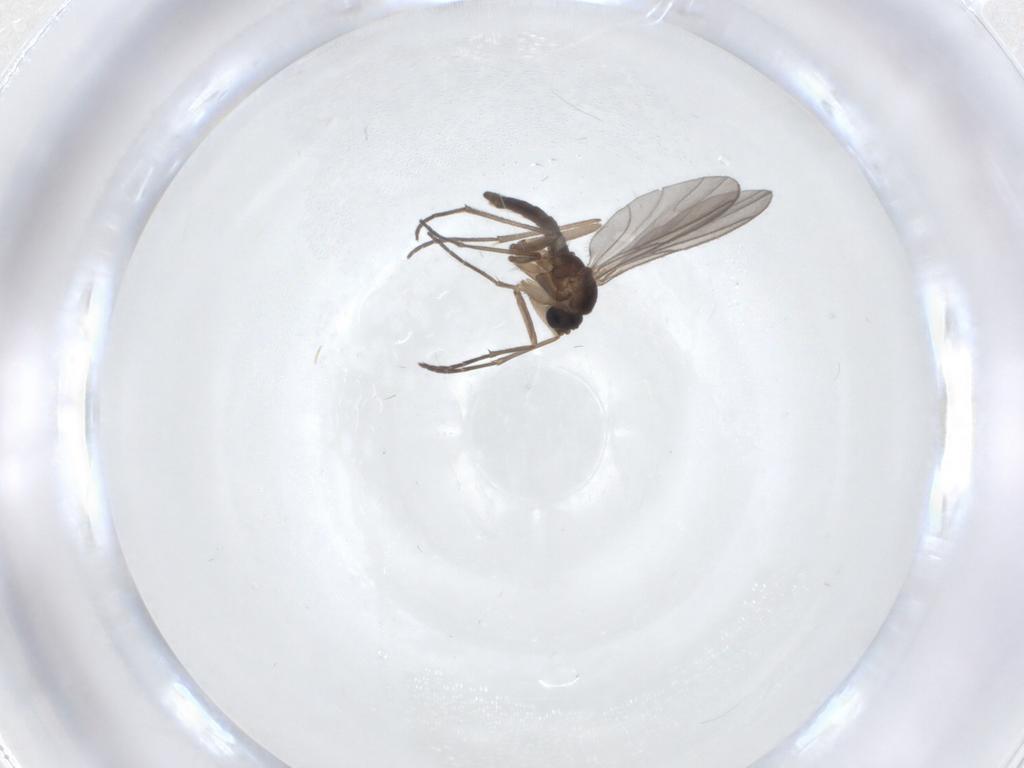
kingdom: Animalia
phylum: Arthropoda
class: Insecta
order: Diptera
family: Sciaridae
